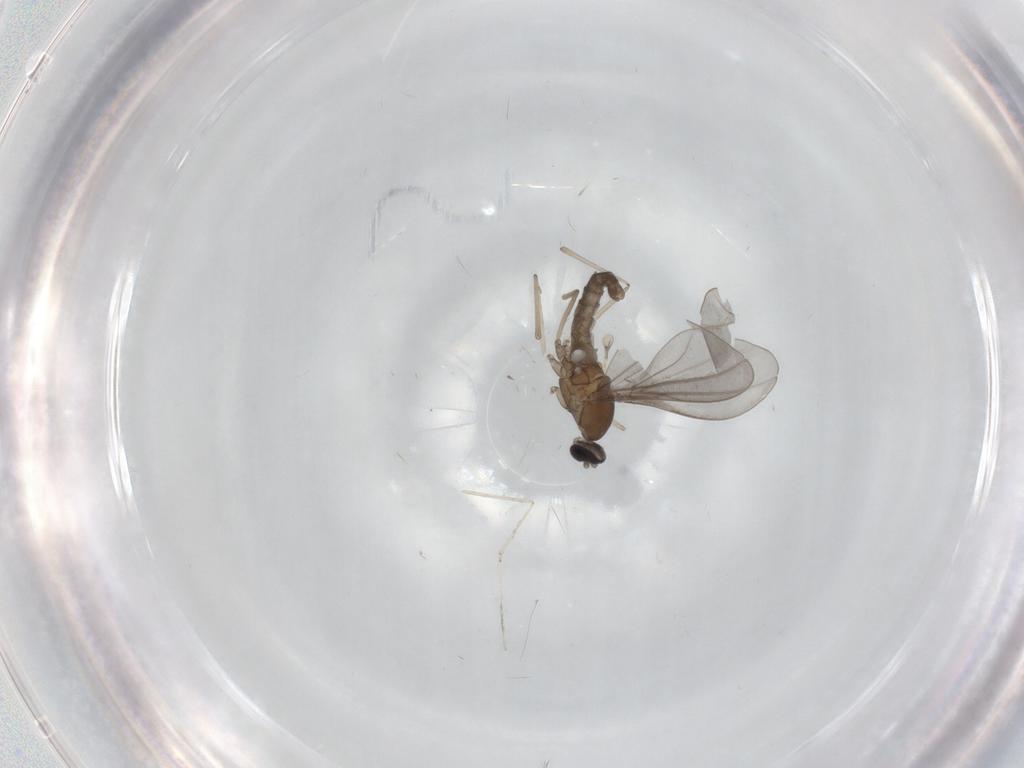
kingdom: Animalia
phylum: Arthropoda
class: Insecta
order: Diptera
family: Cecidomyiidae
